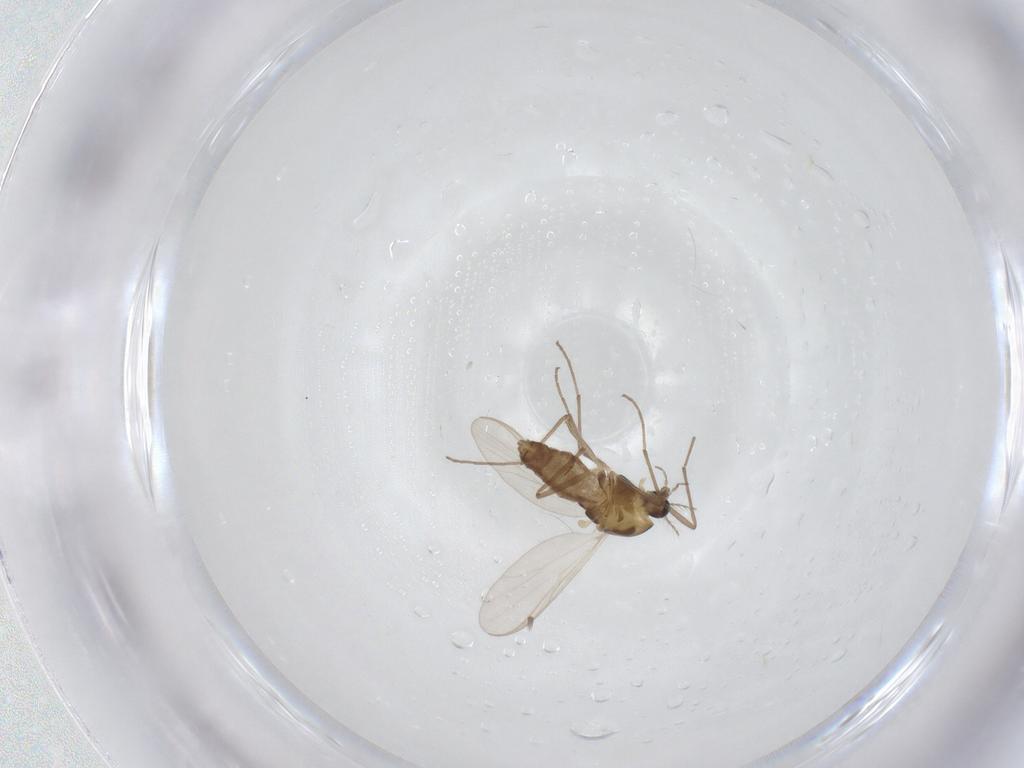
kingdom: Animalia
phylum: Arthropoda
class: Insecta
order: Diptera
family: Chironomidae
